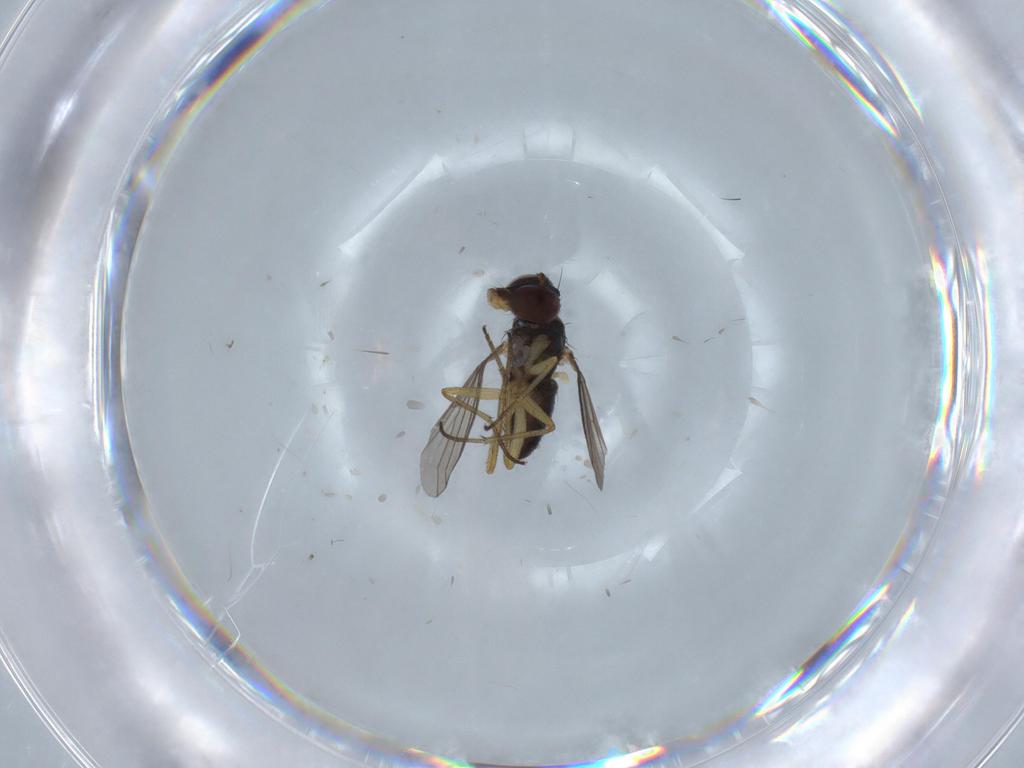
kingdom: Animalia
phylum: Arthropoda
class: Insecta
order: Diptera
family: Dolichopodidae
